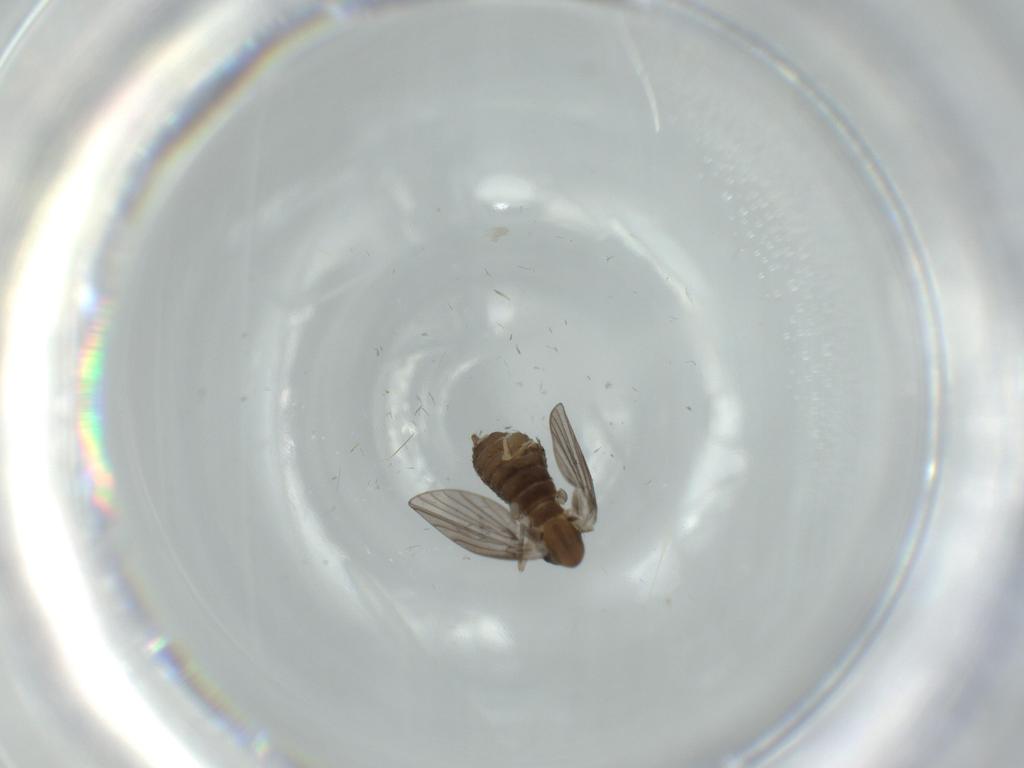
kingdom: Animalia
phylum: Arthropoda
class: Insecta
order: Diptera
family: Psychodidae
